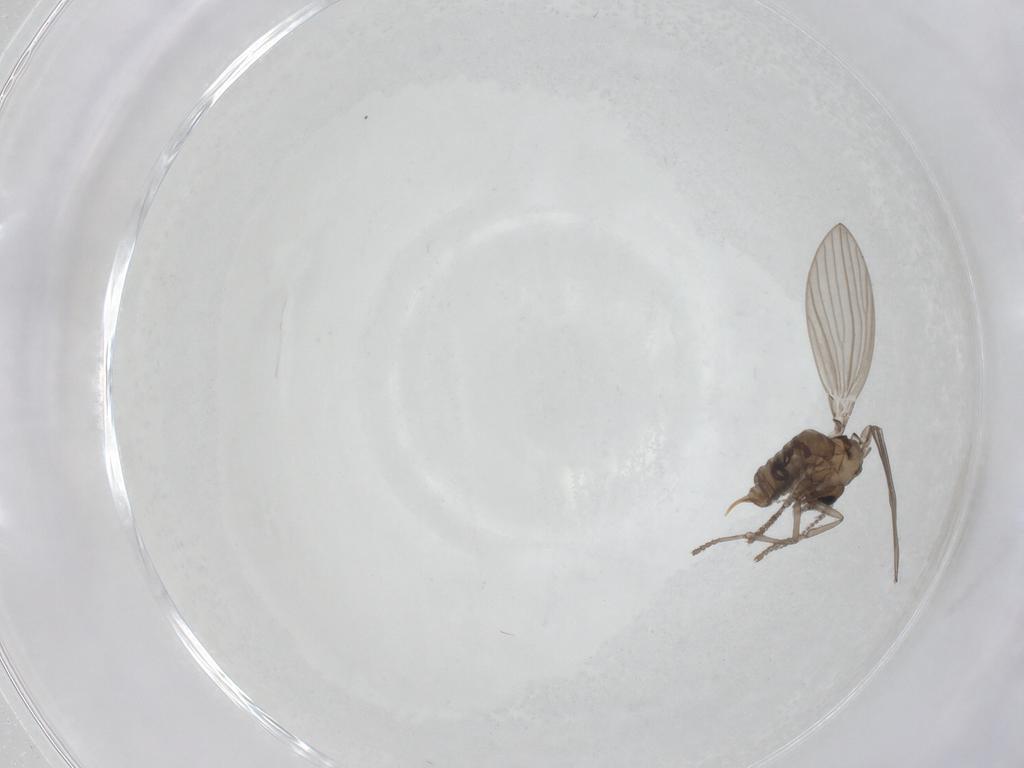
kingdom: Animalia
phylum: Arthropoda
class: Insecta
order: Diptera
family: Psychodidae
